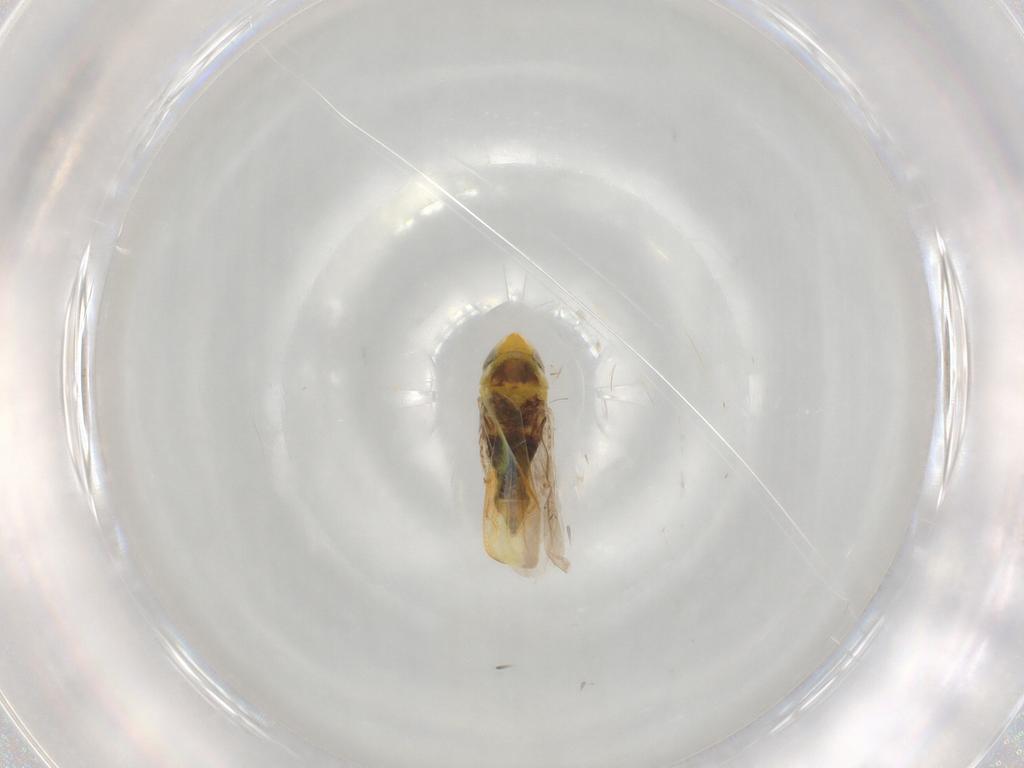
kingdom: Animalia
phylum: Arthropoda
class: Insecta
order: Hemiptera
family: Cicadellidae
